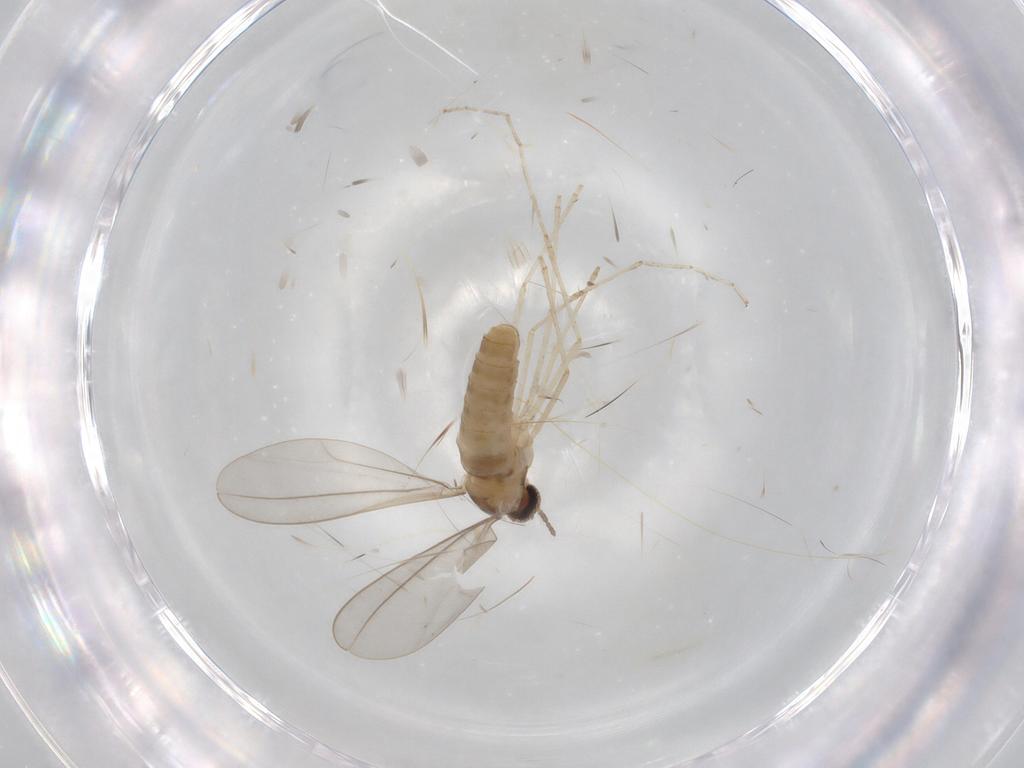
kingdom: Animalia
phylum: Arthropoda
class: Insecta
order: Diptera
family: Cecidomyiidae
